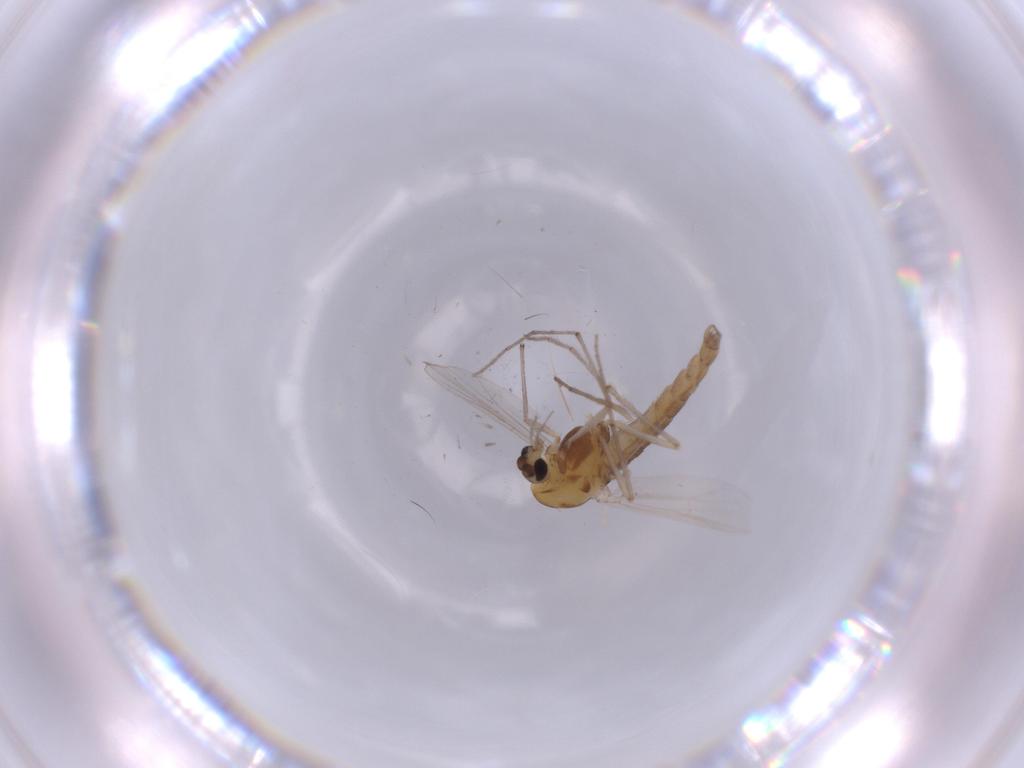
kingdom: Animalia
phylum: Arthropoda
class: Insecta
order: Diptera
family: Chironomidae
